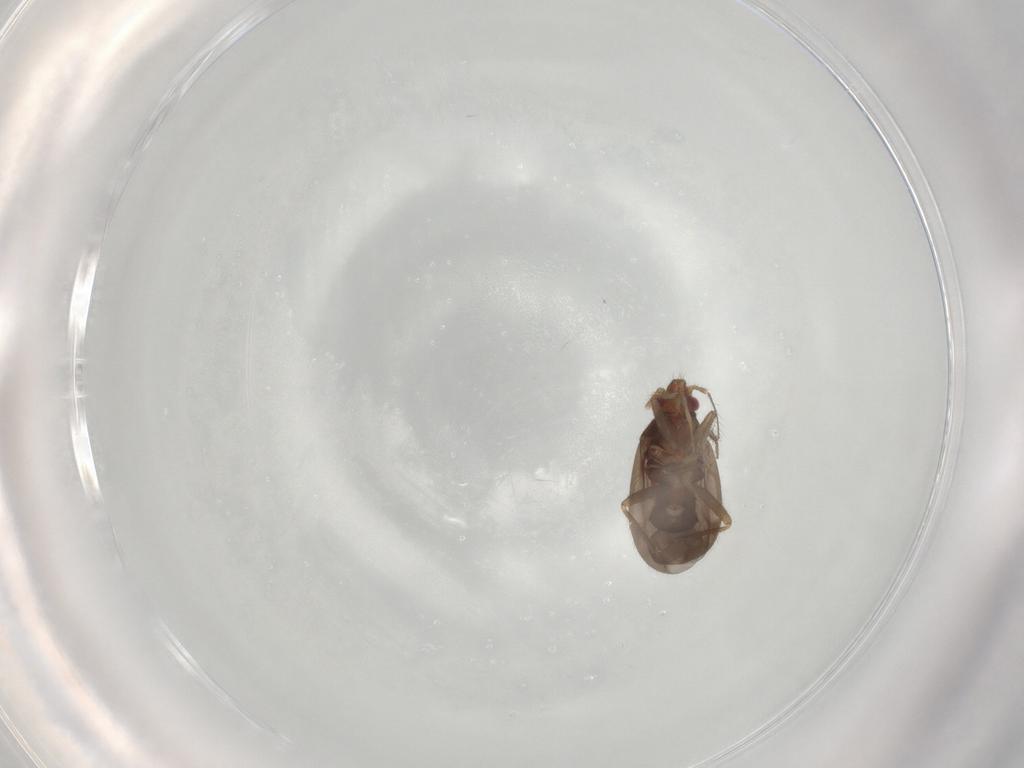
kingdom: Animalia
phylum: Arthropoda
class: Insecta
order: Hemiptera
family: Ceratocombidae
